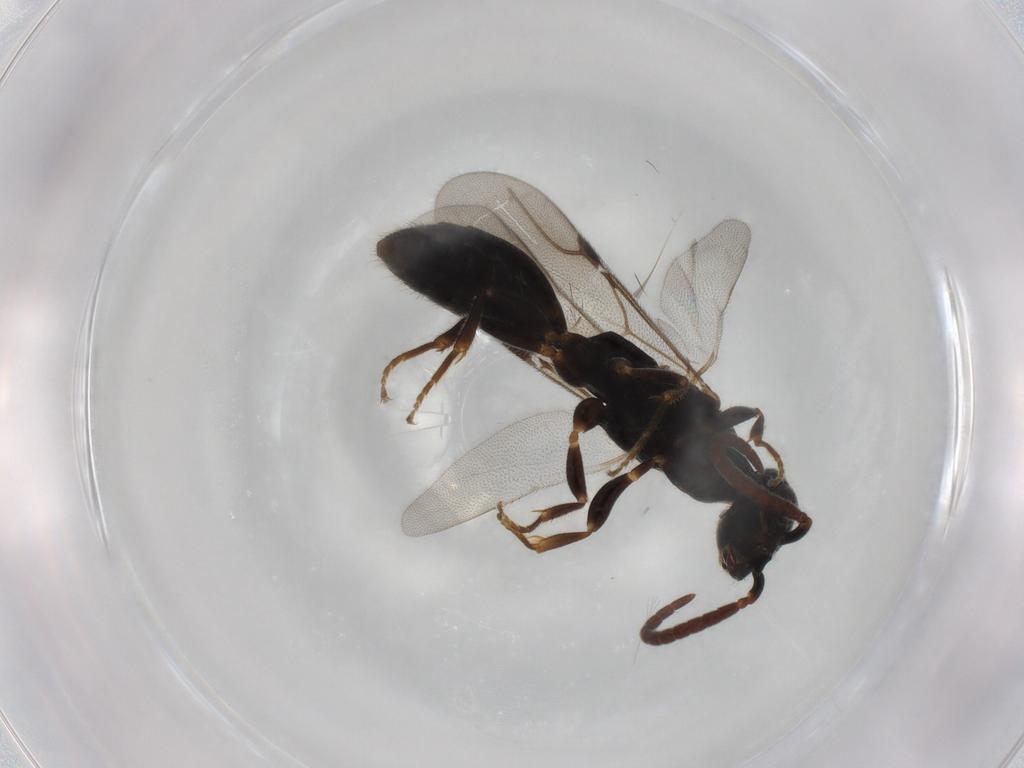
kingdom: Animalia
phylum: Arthropoda
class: Insecta
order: Hymenoptera
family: Bethylidae
